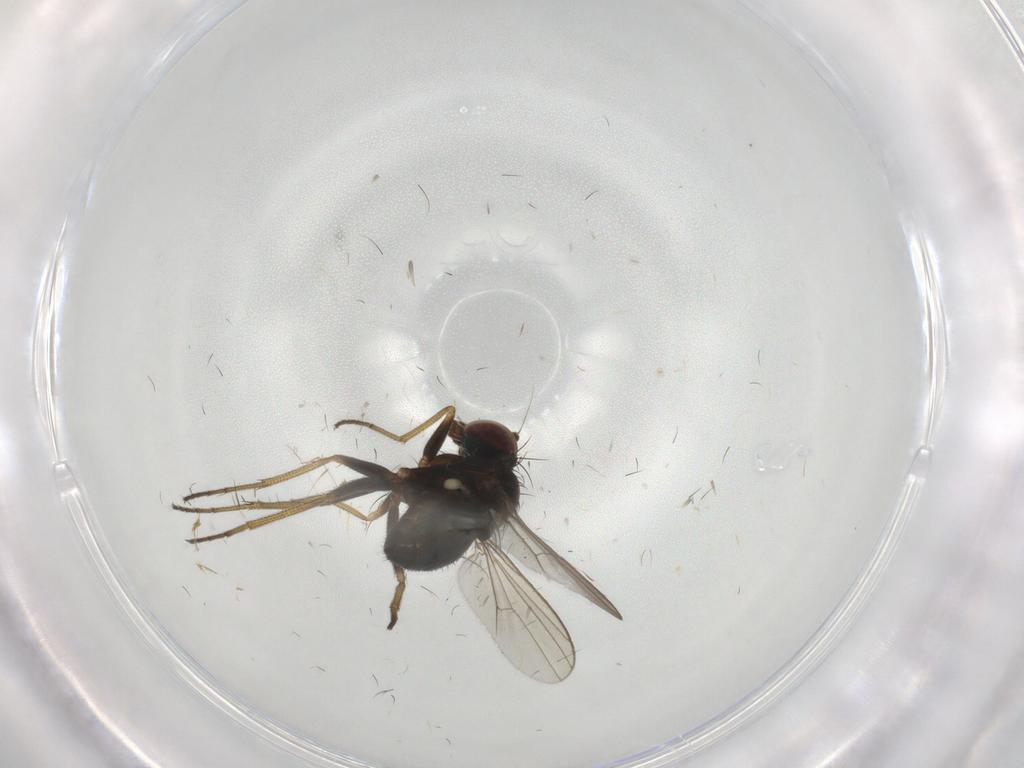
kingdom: Animalia
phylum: Arthropoda
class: Insecta
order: Diptera
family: Dolichopodidae
